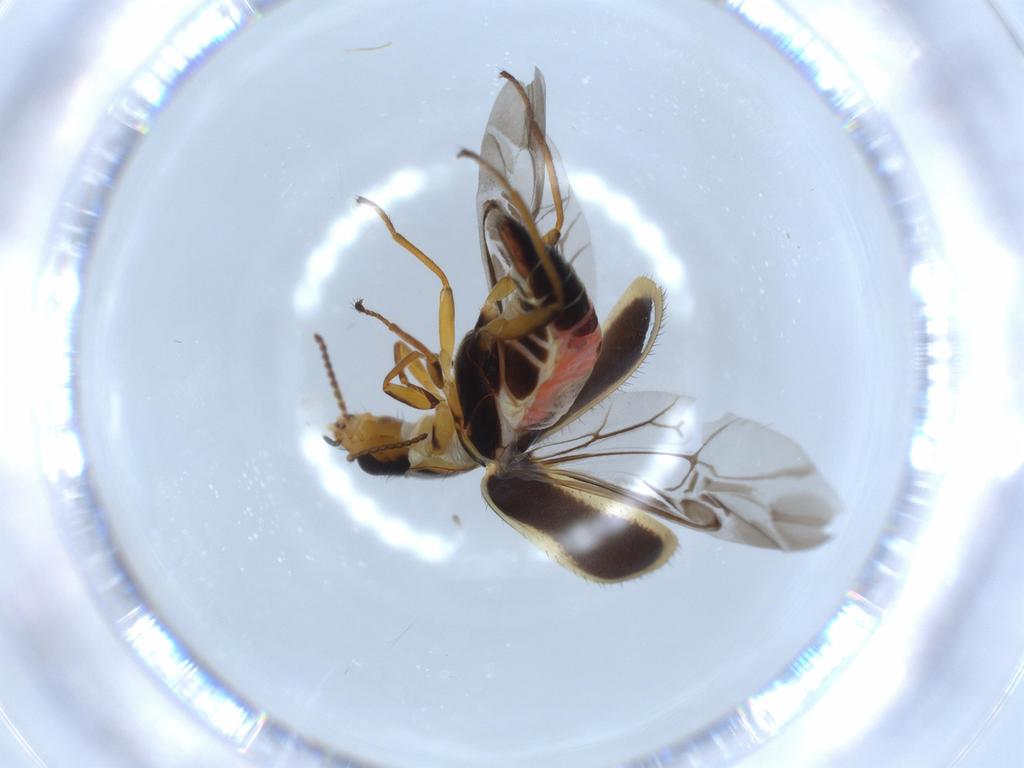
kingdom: Animalia
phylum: Arthropoda
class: Insecta
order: Coleoptera
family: Melyridae
